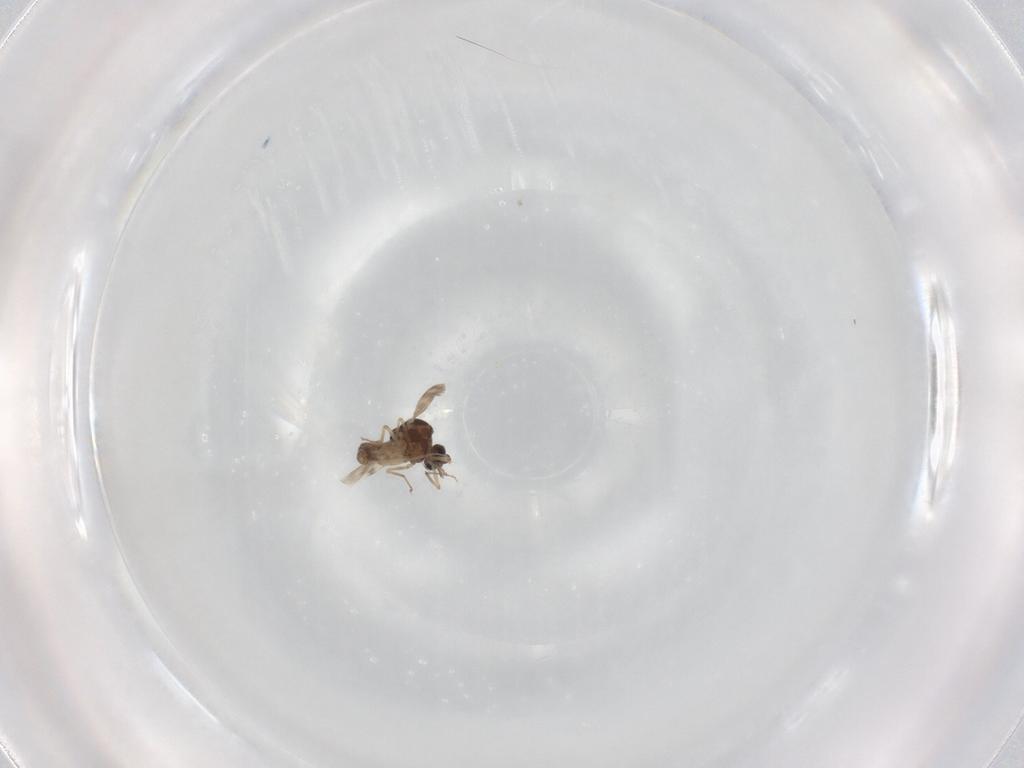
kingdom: Animalia
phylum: Arthropoda
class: Insecta
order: Diptera
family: Ceratopogonidae
